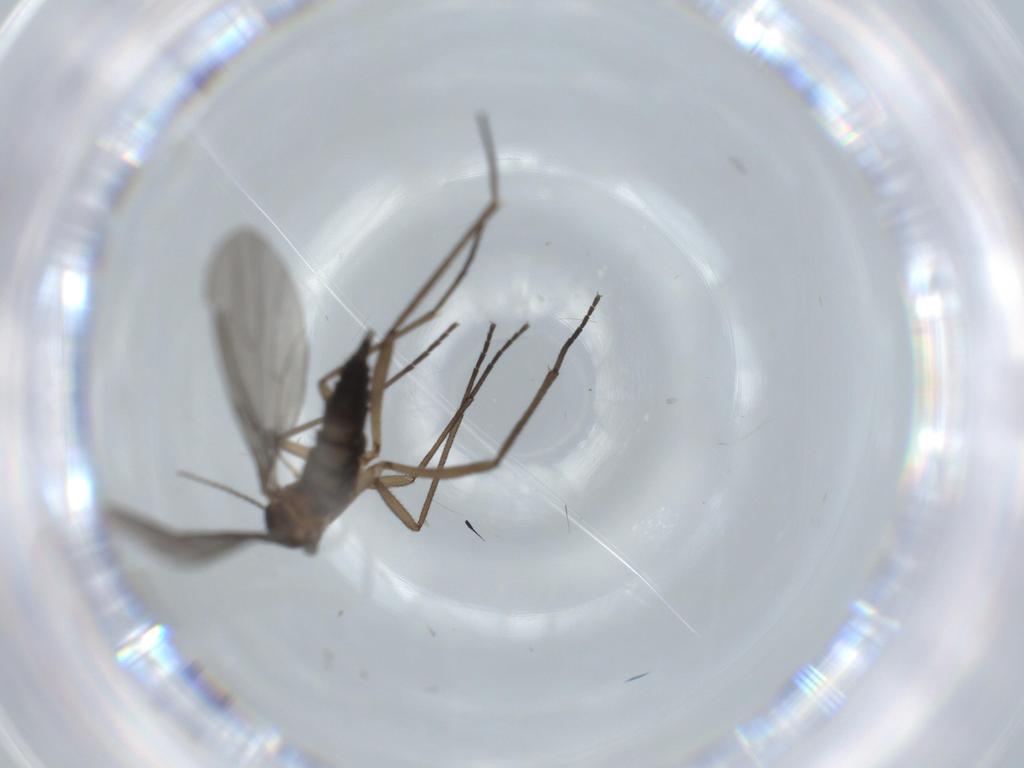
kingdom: Animalia
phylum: Arthropoda
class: Insecta
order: Diptera
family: Sciaridae
